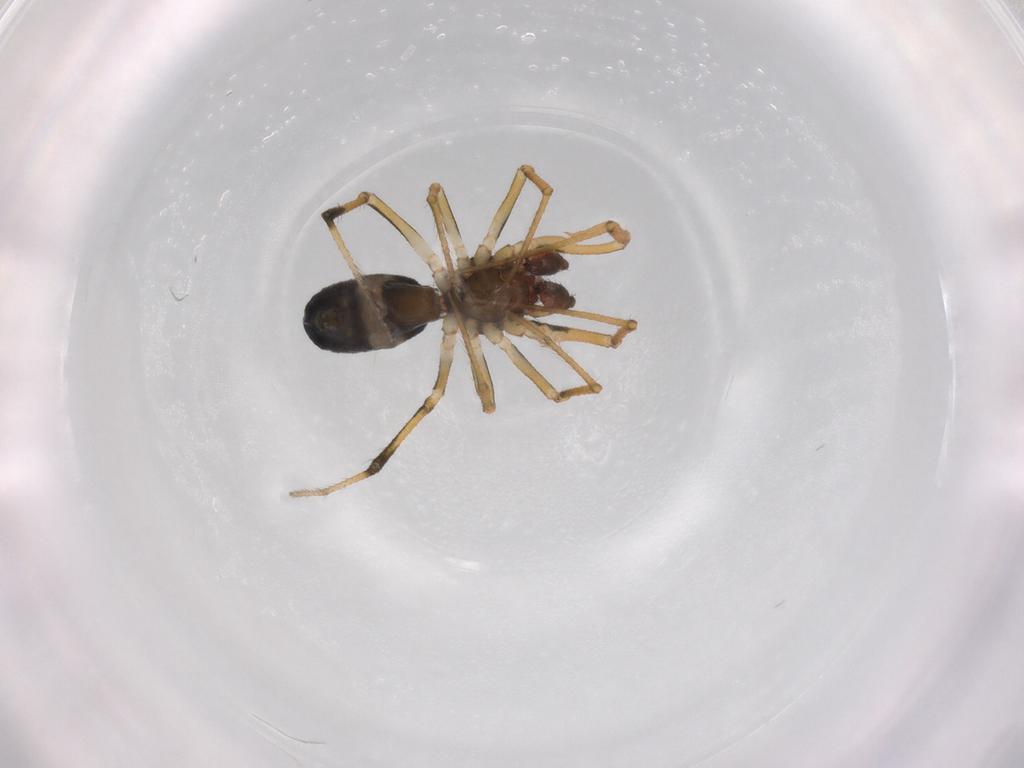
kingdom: Animalia
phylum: Arthropoda
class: Arachnida
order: Araneae
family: Theridiidae
